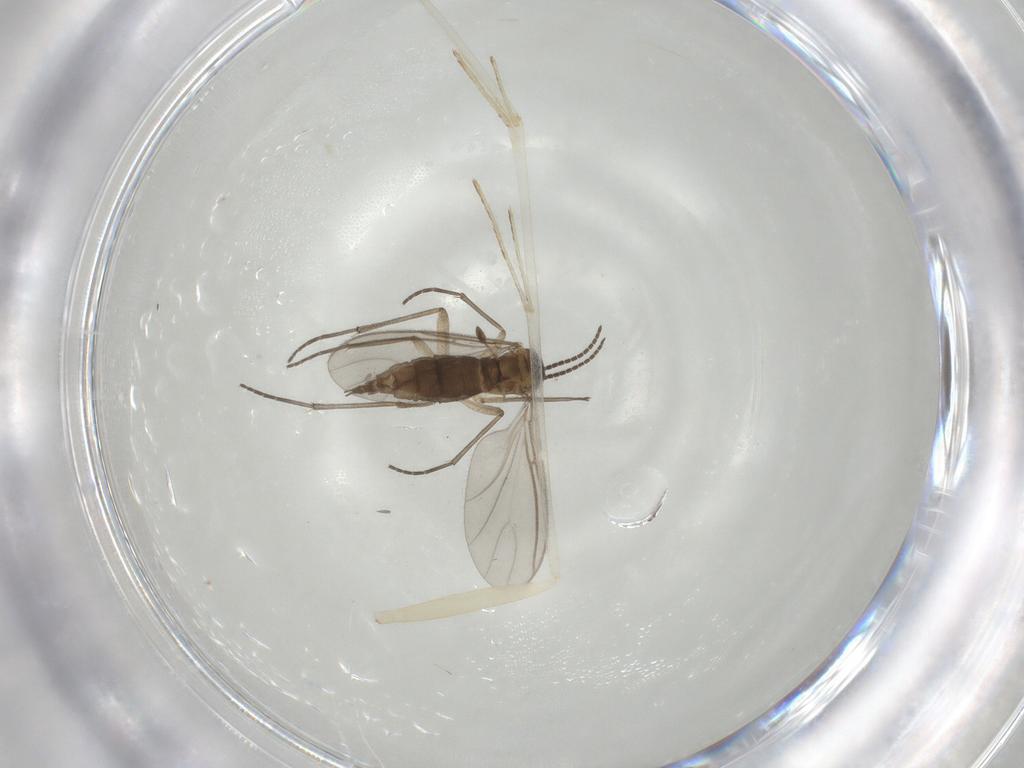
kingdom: Animalia
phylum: Arthropoda
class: Insecta
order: Diptera
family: Sciaridae
